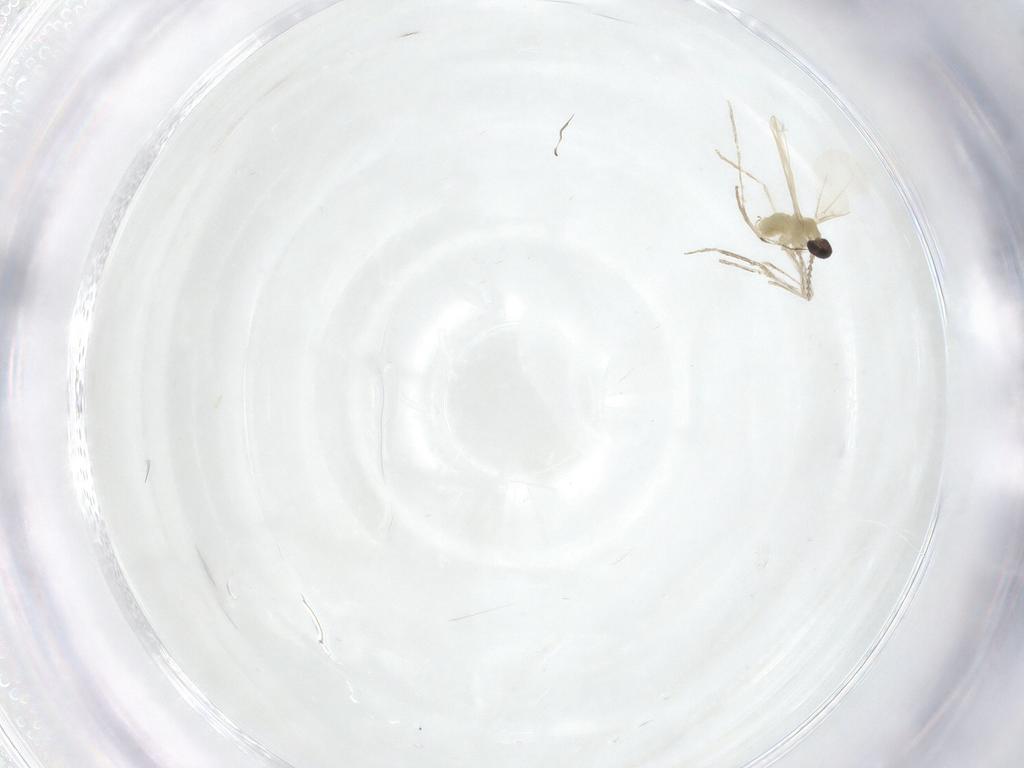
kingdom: Animalia
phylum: Arthropoda
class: Insecta
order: Diptera
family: Cecidomyiidae
